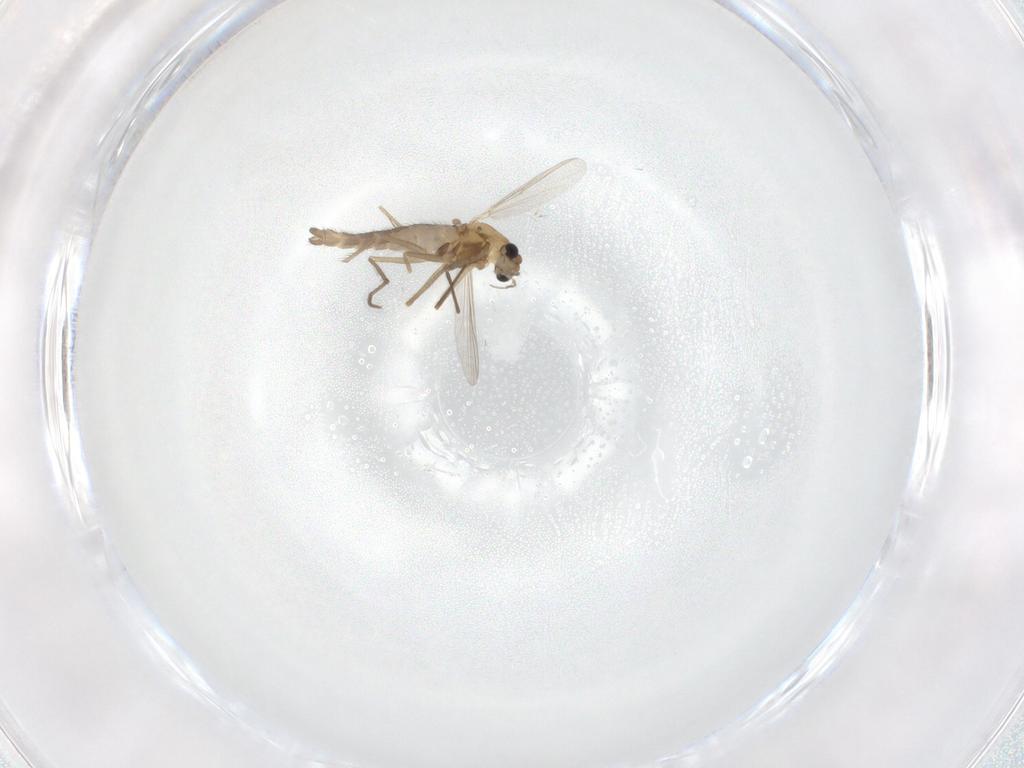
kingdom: Animalia
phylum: Arthropoda
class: Insecta
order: Diptera
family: Chironomidae
